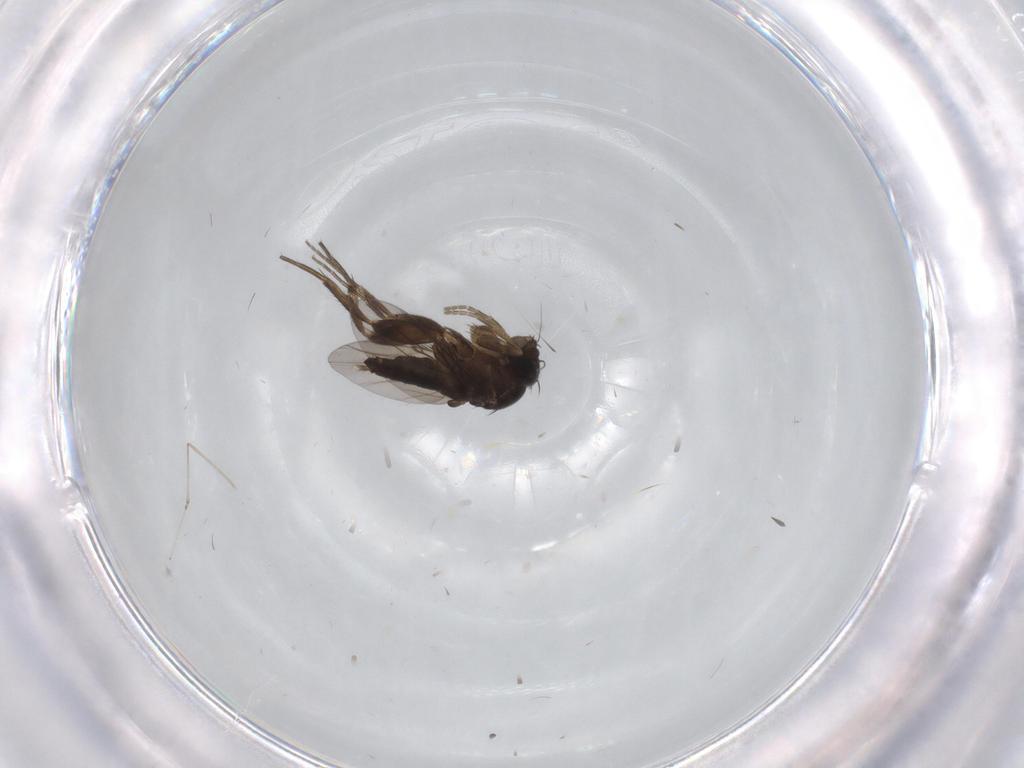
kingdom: Animalia
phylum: Arthropoda
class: Insecta
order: Diptera
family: Phoridae
